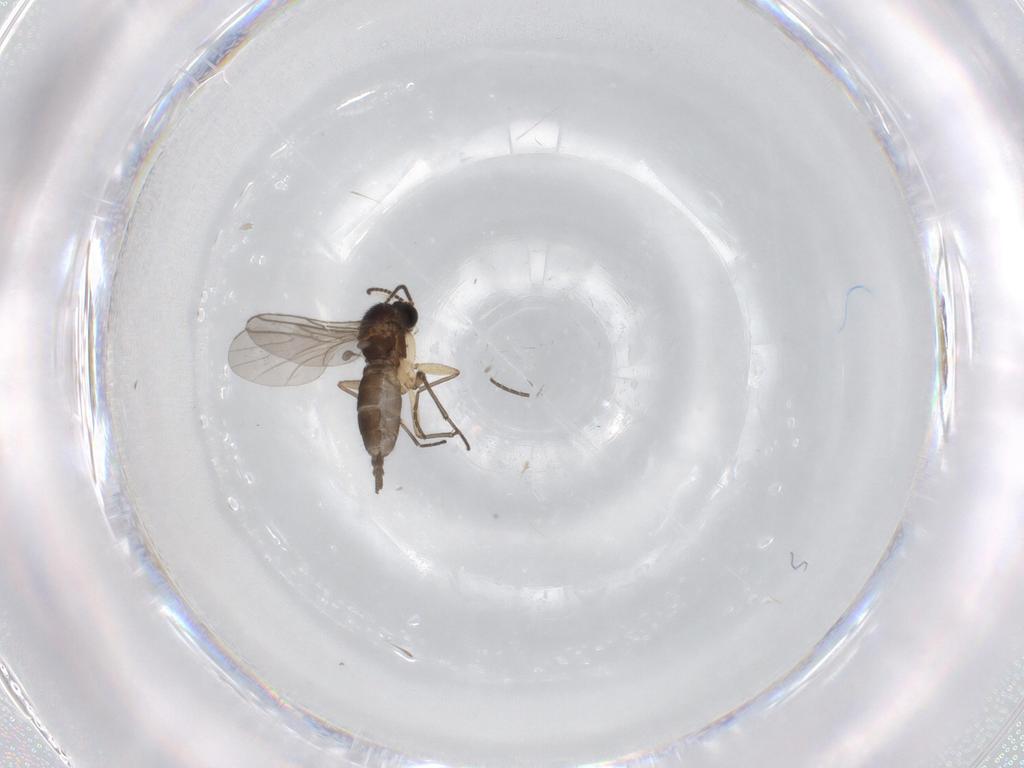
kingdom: Animalia
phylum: Arthropoda
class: Insecta
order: Diptera
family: Sciaridae
